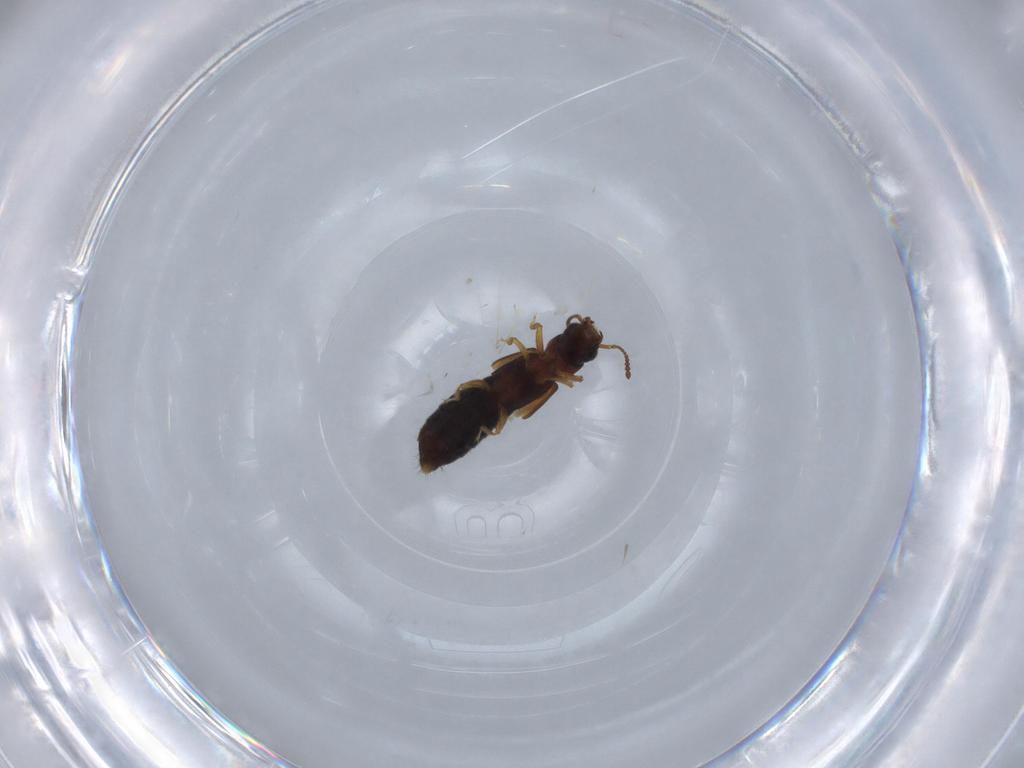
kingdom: Animalia
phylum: Arthropoda
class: Insecta
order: Coleoptera
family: Staphylinidae
